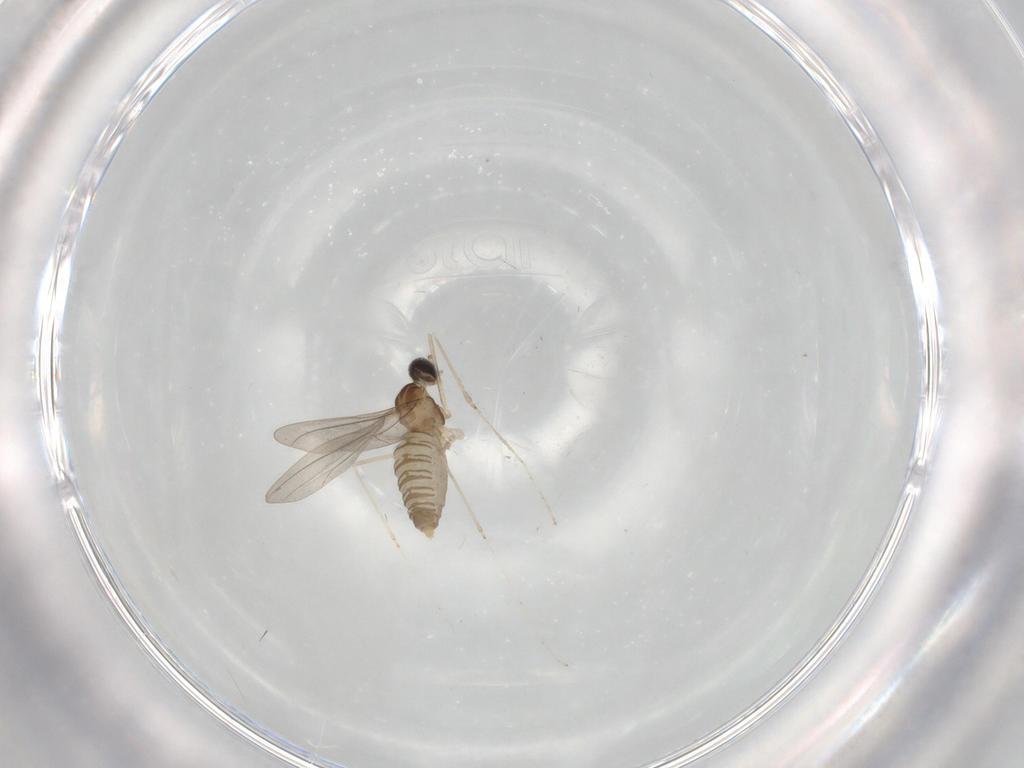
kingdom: Animalia
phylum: Arthropoda
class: Insecta
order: Diptera
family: Cecidomyiidae
